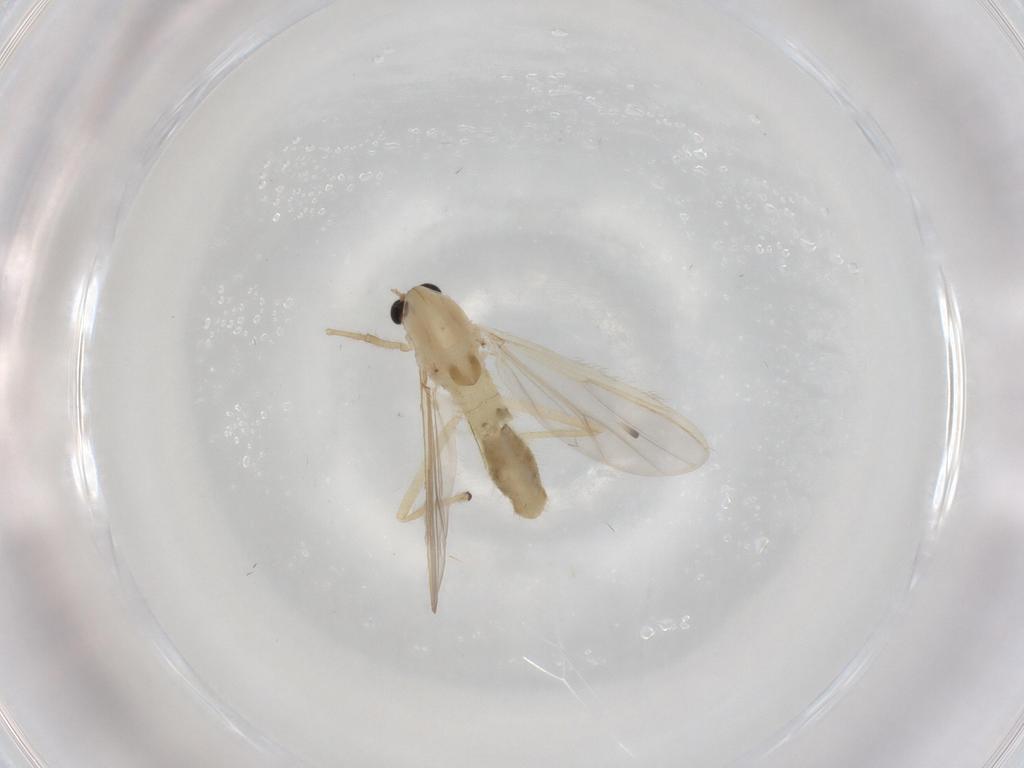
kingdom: Animalia
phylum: Arthropoda
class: Insecta
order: Diptera
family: Chironomidae
